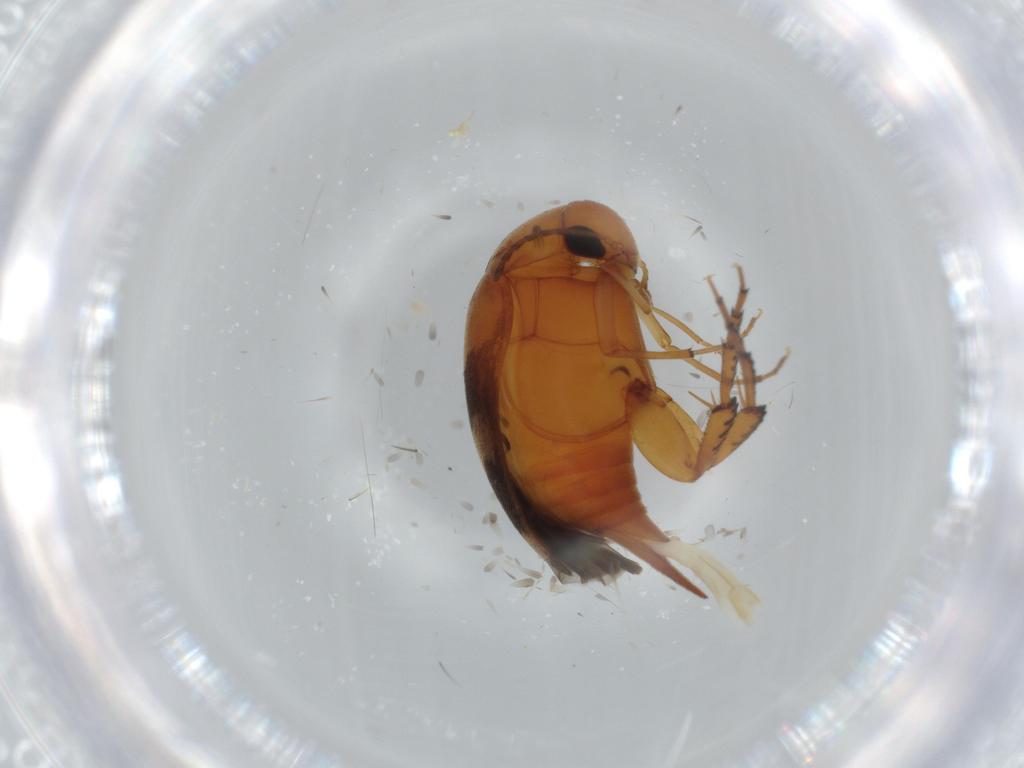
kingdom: Animalia
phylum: Arthropoda
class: Insecta
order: Coleoptera
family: Mordellidae
